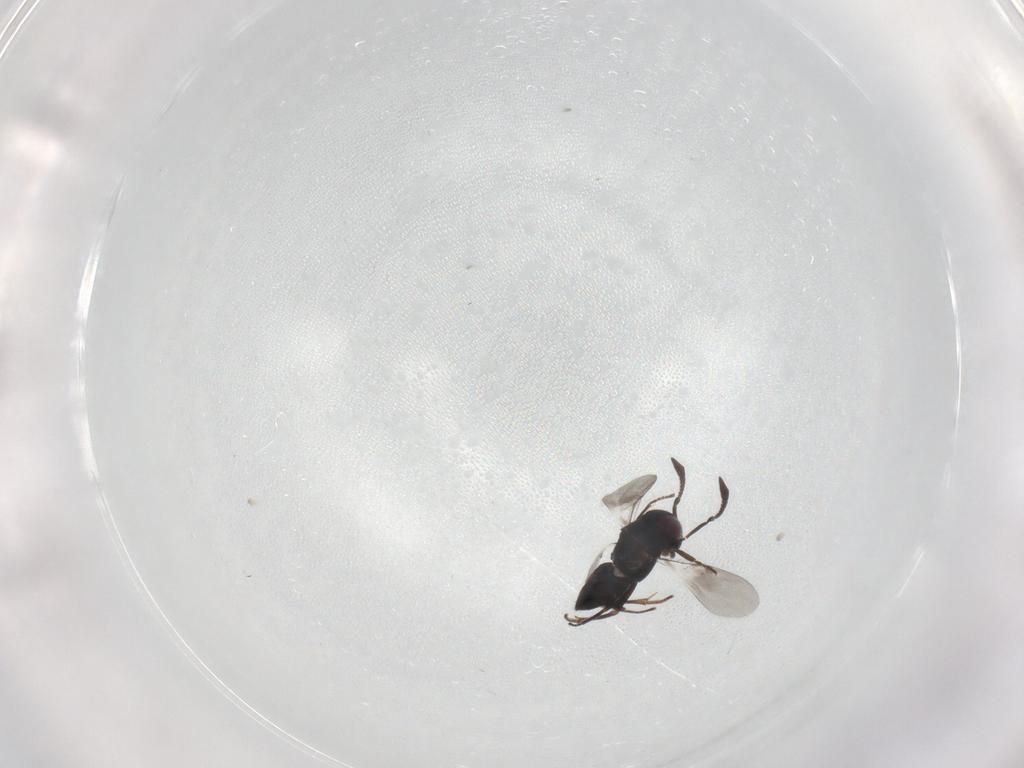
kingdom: Animalia
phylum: Arthropoda
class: Insecta
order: Hymenoptera
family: Encyrtidae
